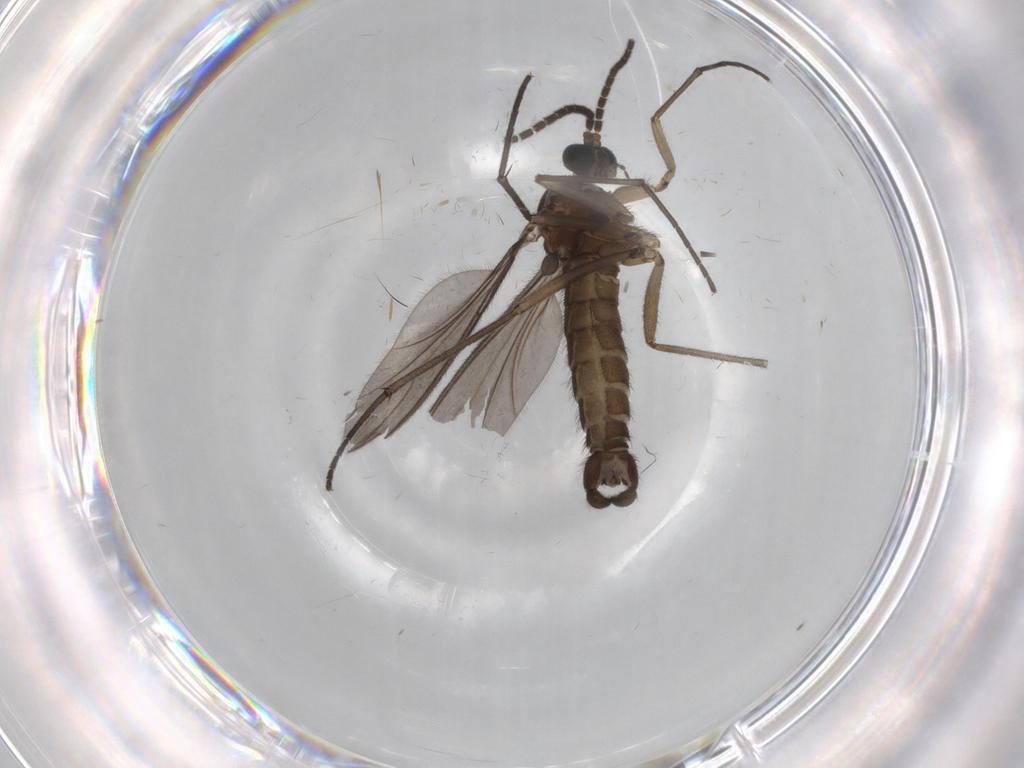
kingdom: Animalia
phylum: Arthropoda
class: Insecta
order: Diptera
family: Sciaridae
